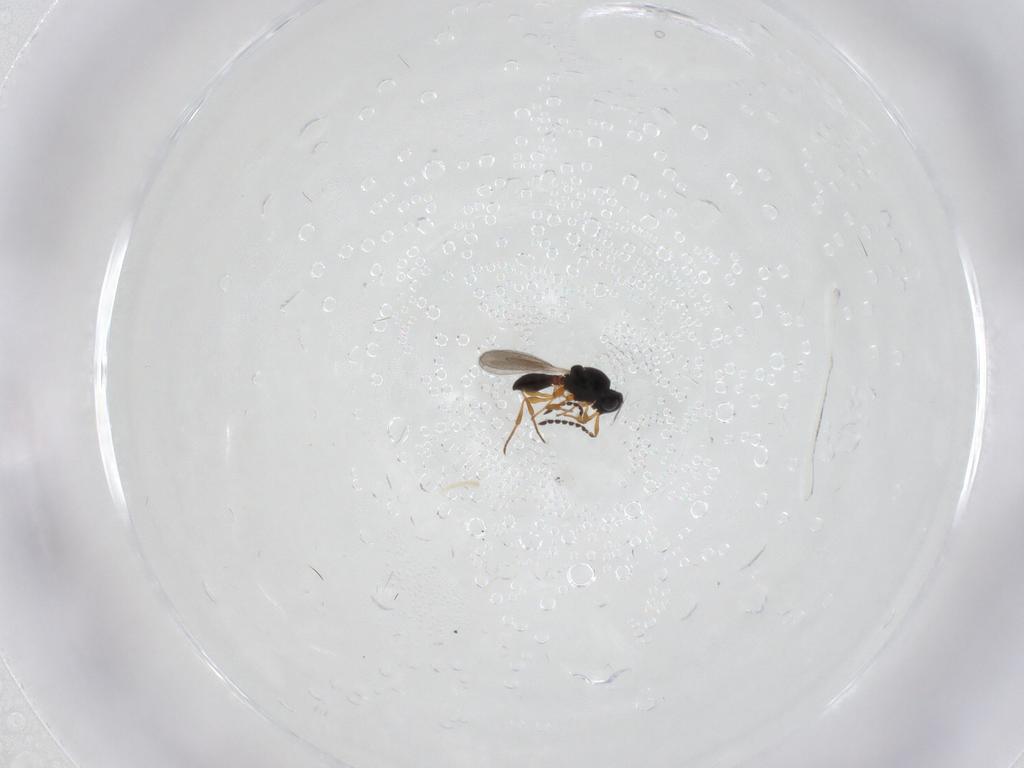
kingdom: Animalia
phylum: Arthropoda
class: Insecta
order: Hymenoptera
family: Platygastridae
